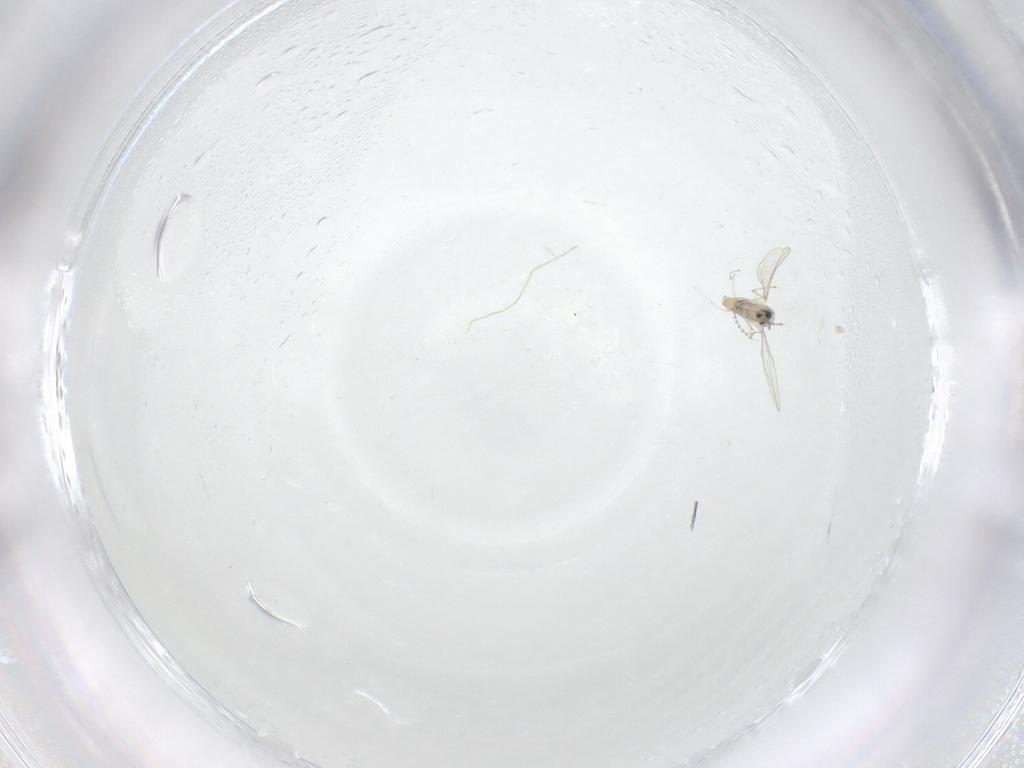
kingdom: Animalia
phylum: Arthropoda
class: Insecta
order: Diptera
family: Cecidomyiidae
